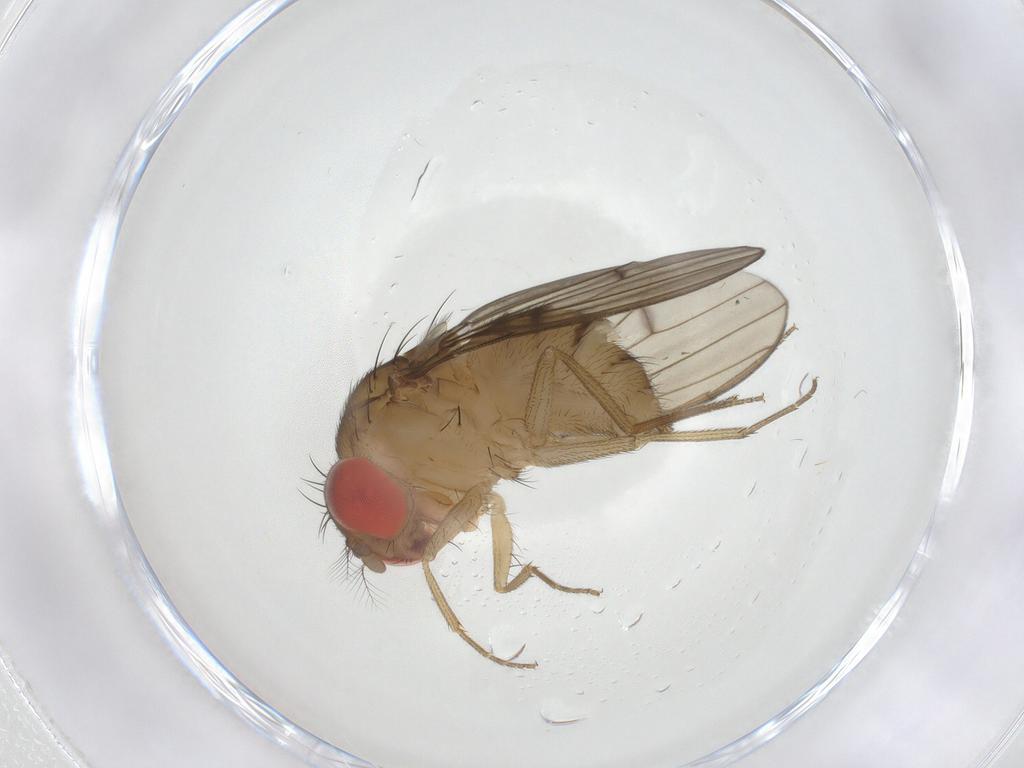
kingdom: Animalia
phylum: Arthropoda
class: Insecta
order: Diptera
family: Drosophilidae
